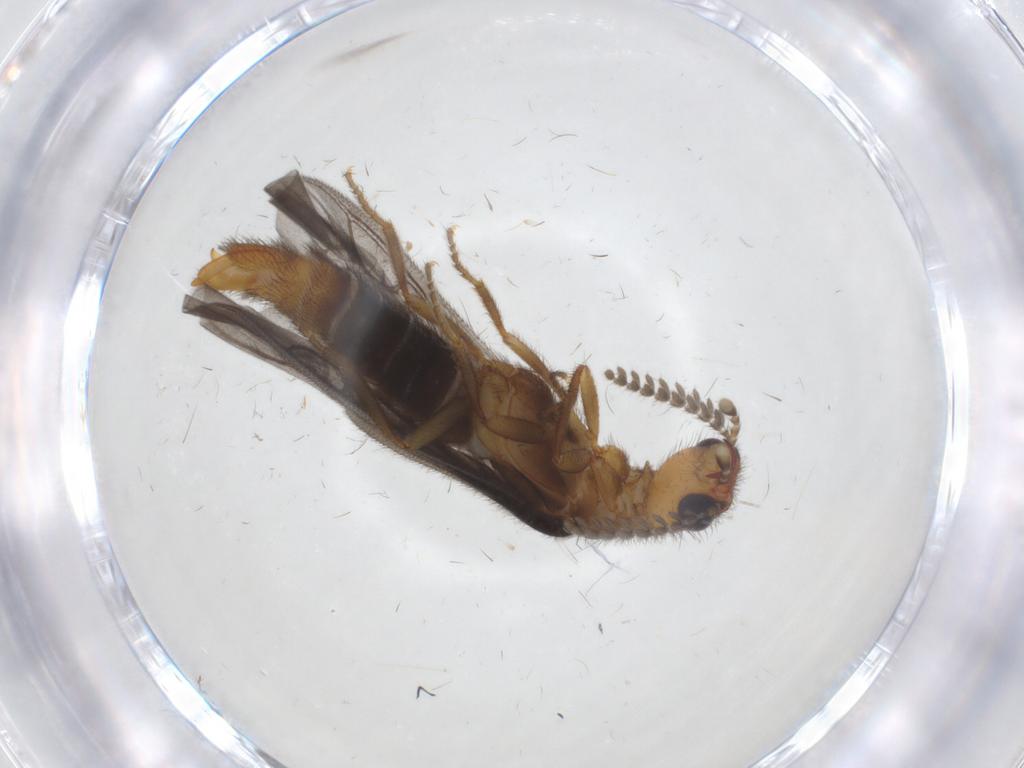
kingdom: Animalia
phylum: Arthropoda
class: Insecta
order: Coleoptera
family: Phengodidae
